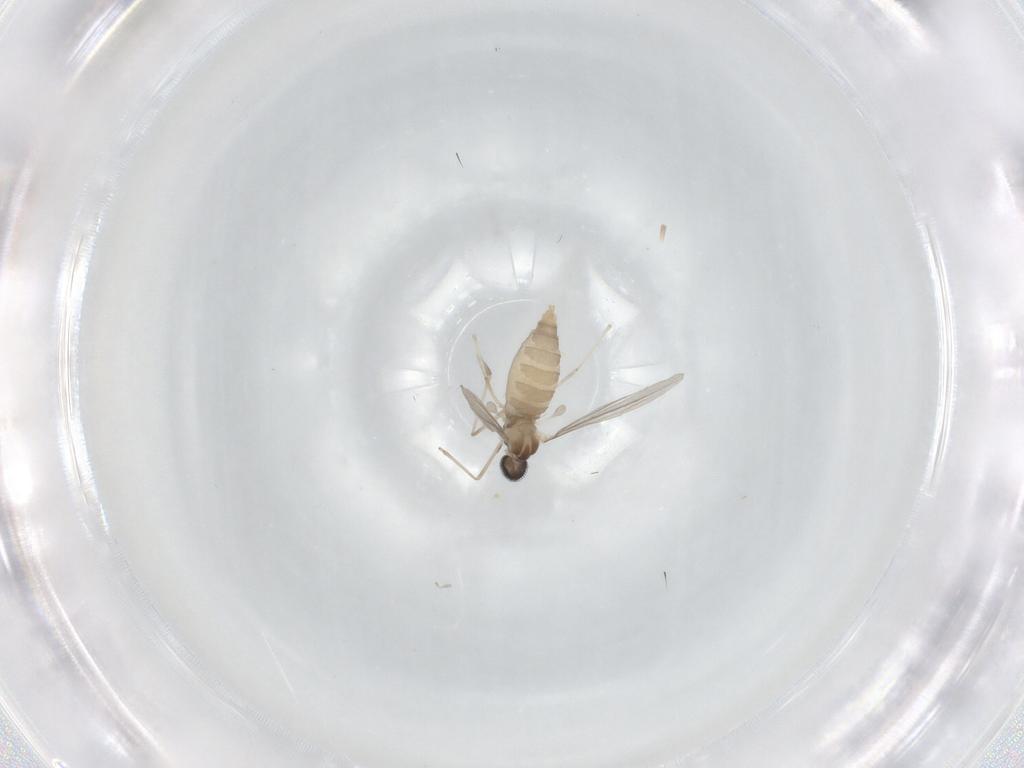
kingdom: Animalia
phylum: Arthropoda
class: Insecta
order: Diptera
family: Cecidomyiidae
